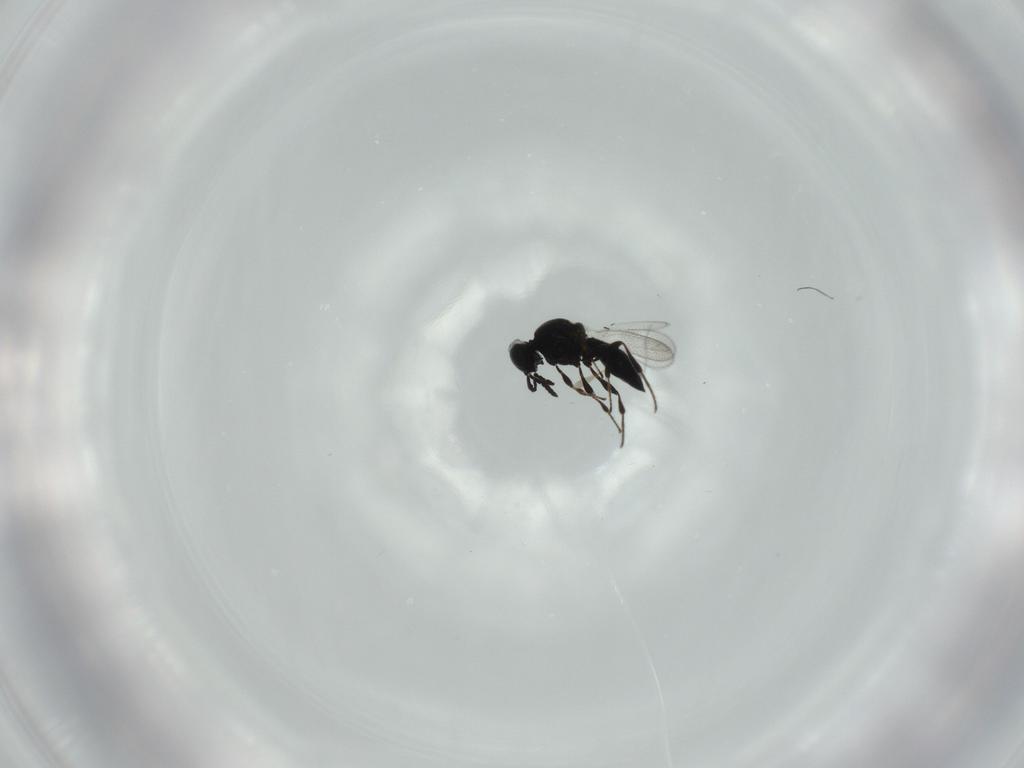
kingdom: Animalia
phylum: Arthropoda
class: Insecta
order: Hymenoptera
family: Platygastridae
